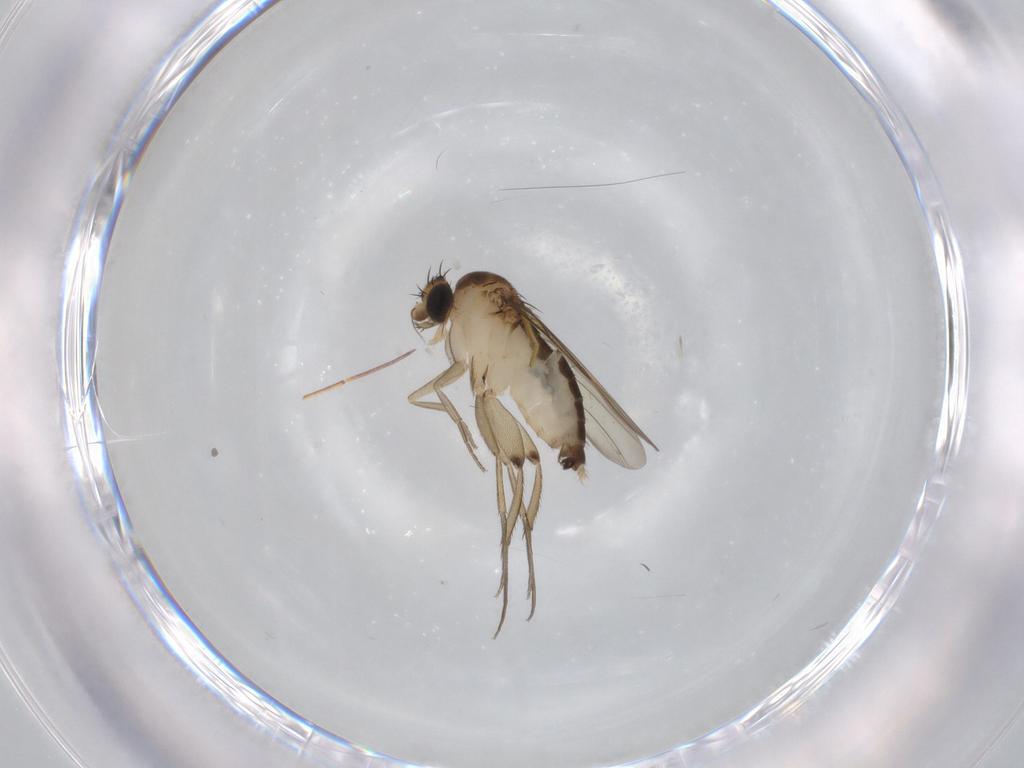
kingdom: Animalia
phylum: Arthropoda
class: Insecta
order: Diptera
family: Phoridae
